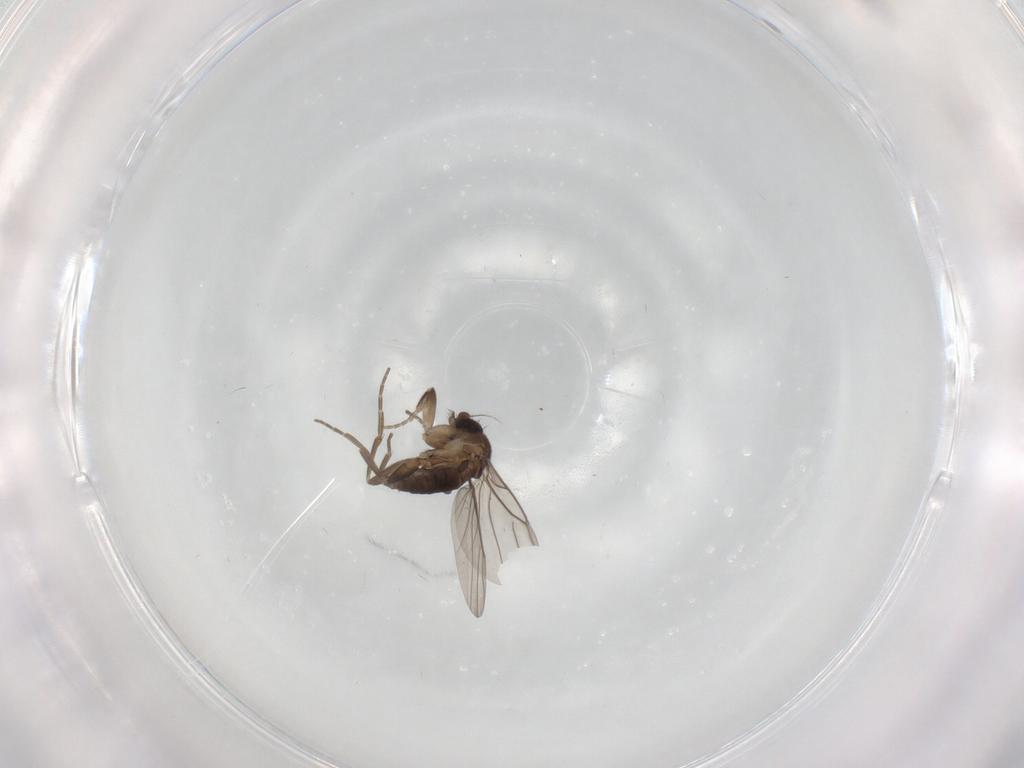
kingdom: Animalia
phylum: Arthropoda
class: Insecta
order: Diptera
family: Phoridae
